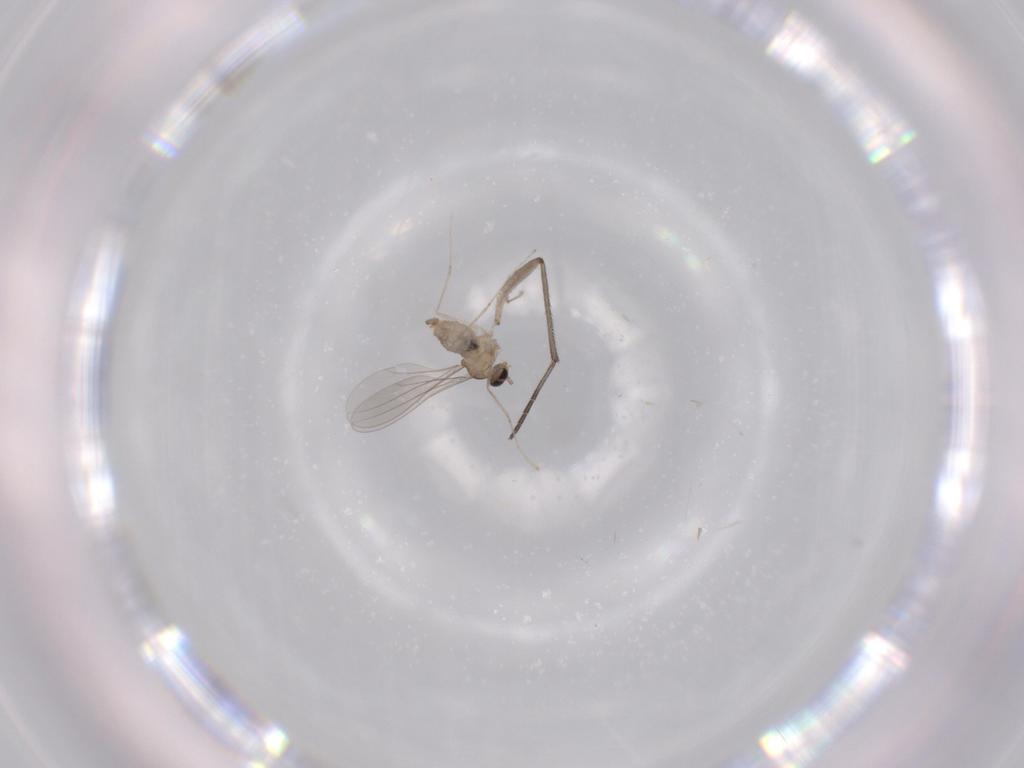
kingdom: Animalia
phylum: Arthropoda
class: Insecta
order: Diptera
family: Cecidomyiidae
